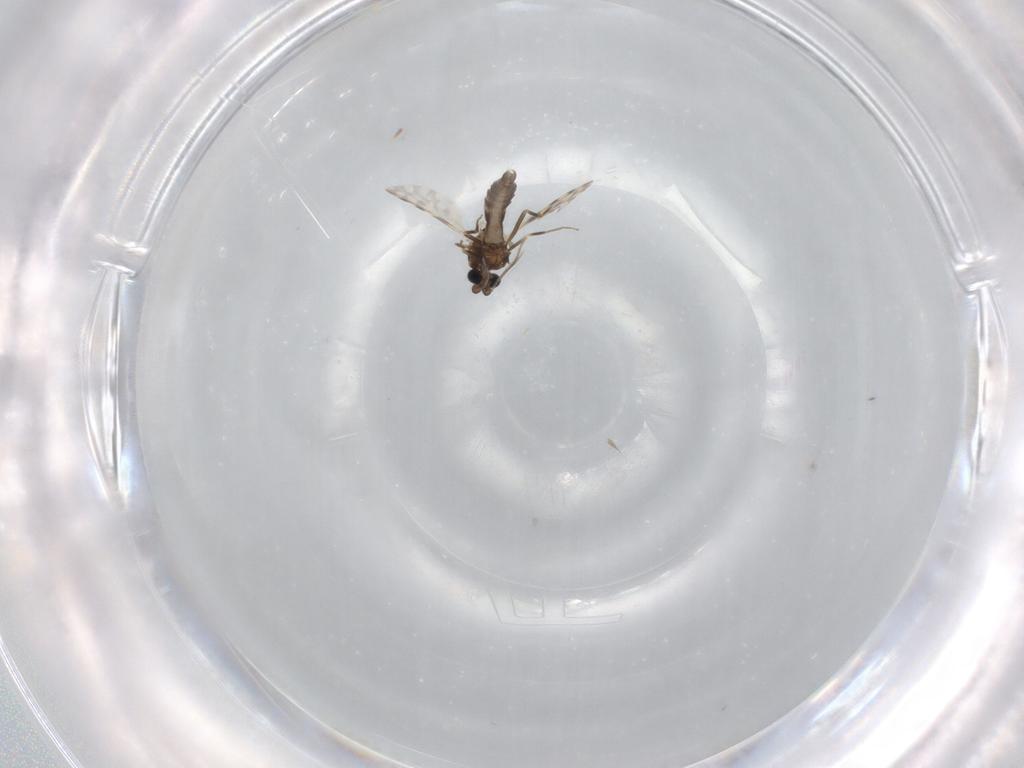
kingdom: Animalia
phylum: Arthropoda
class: Insecta
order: Diptera
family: Ceratopogonidae
